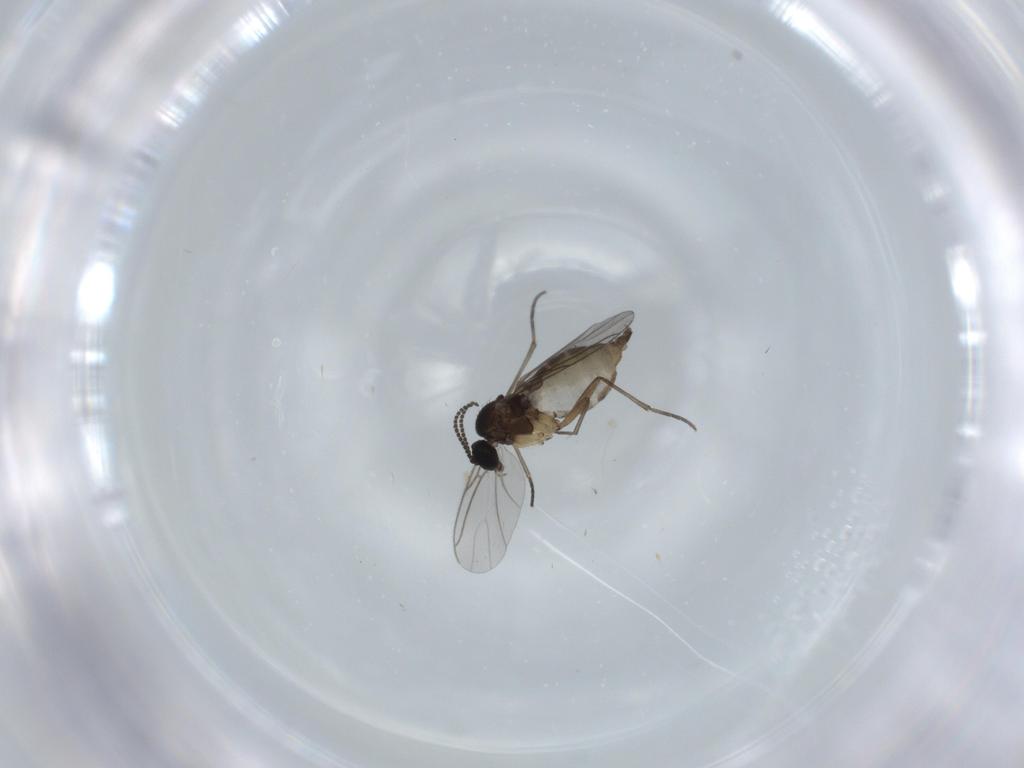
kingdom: Animalia
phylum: Arthropoda
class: Insecta
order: Diptera
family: Sciaridae
